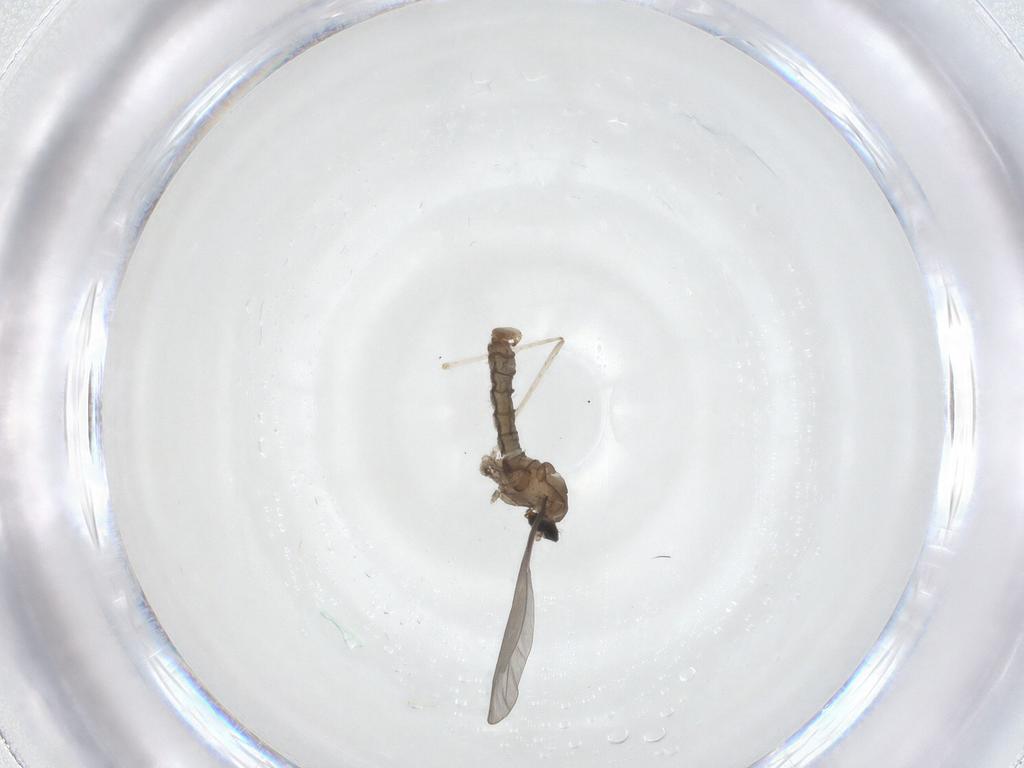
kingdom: Animalia
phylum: Arthropoda
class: Insecta
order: Diptera
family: Cecidomyiidae
